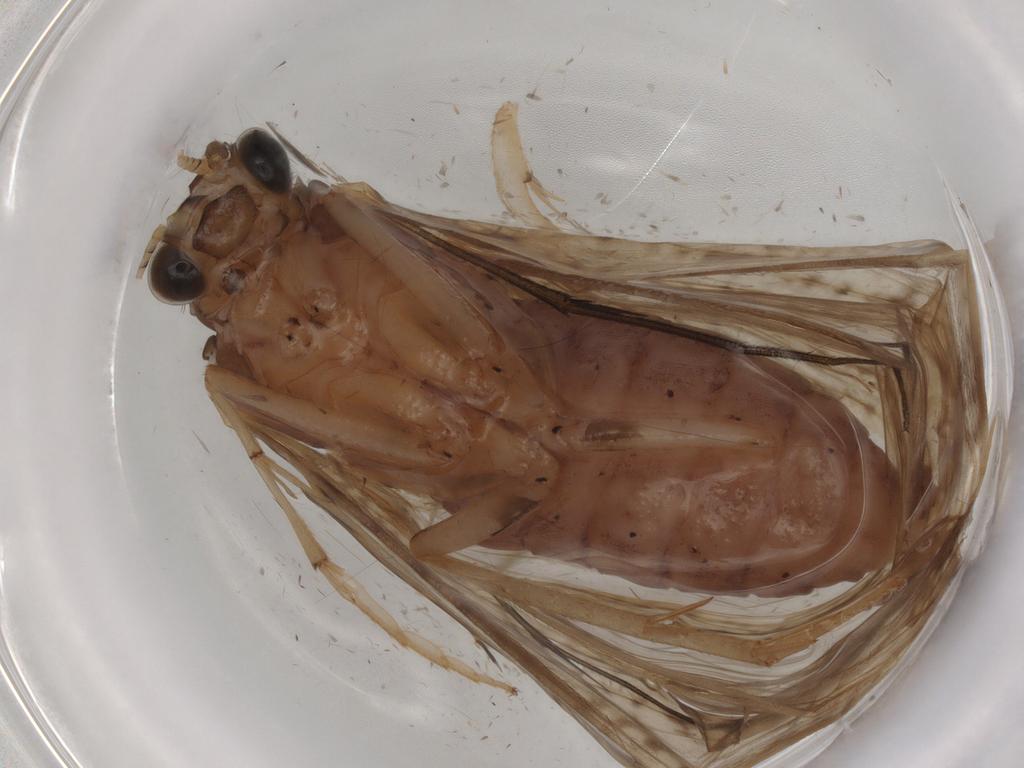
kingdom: Animalia
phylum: Arthropoda
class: Insecta
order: Trichoptera
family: Hydropsychidae
